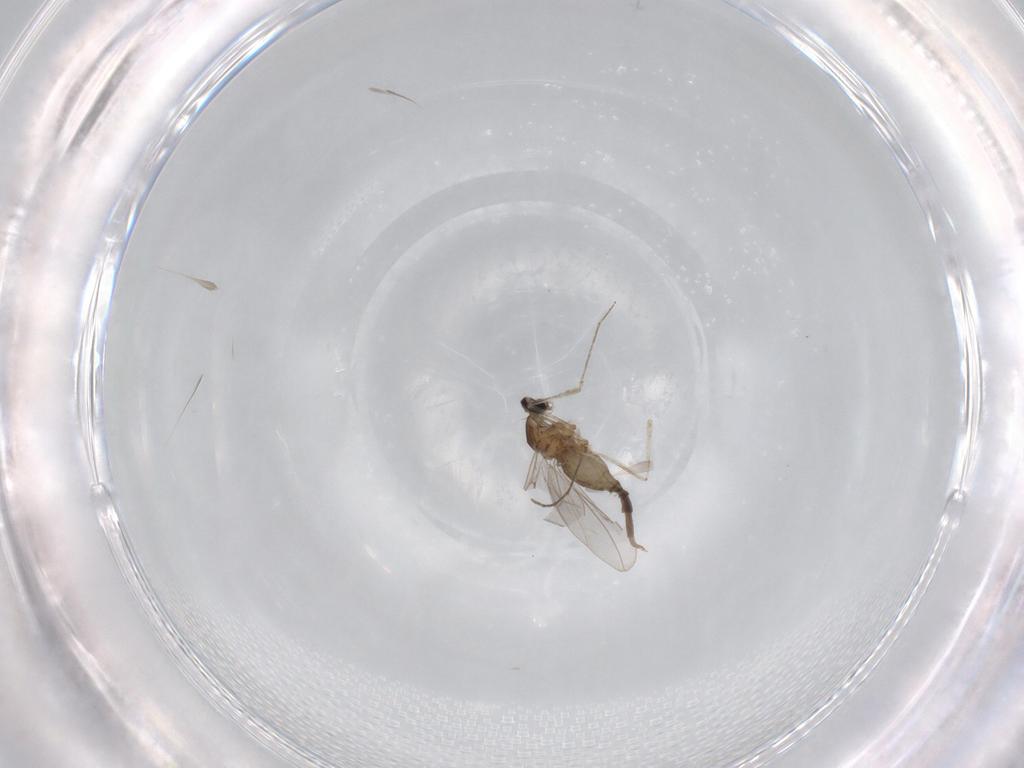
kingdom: Animalia
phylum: Arthropoda
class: Insecta
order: Diptera
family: Cecidomyiidae
